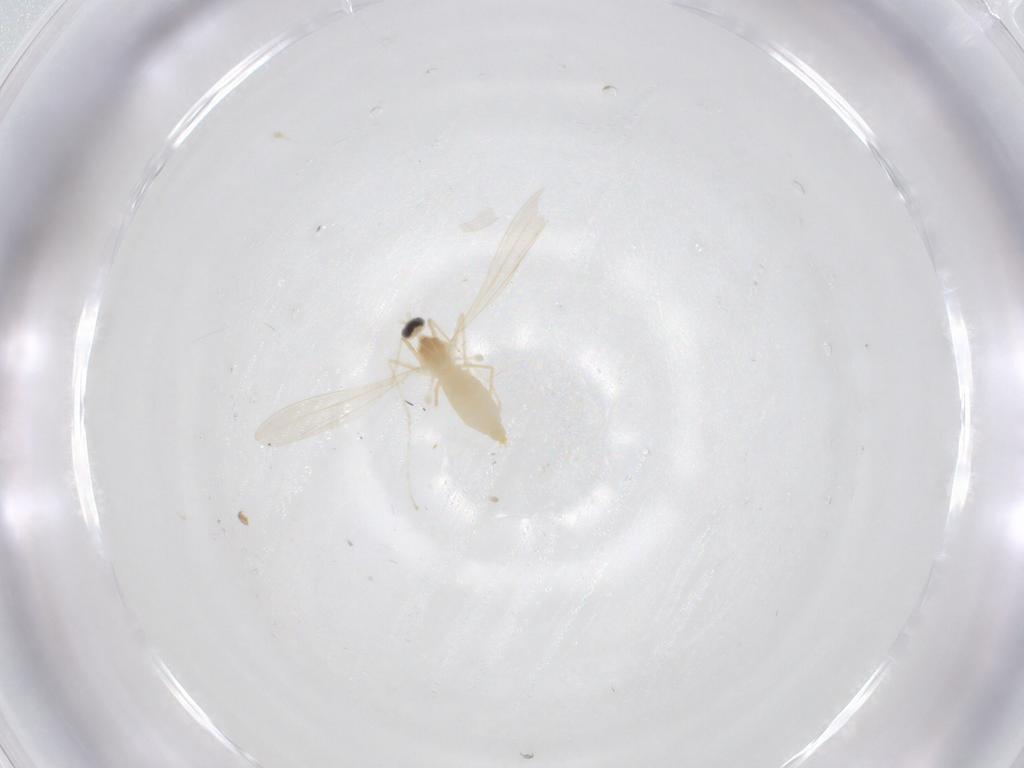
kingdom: Animalia
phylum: Arthropoda
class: Insecta
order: Diptera
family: Cecidomyiidae
